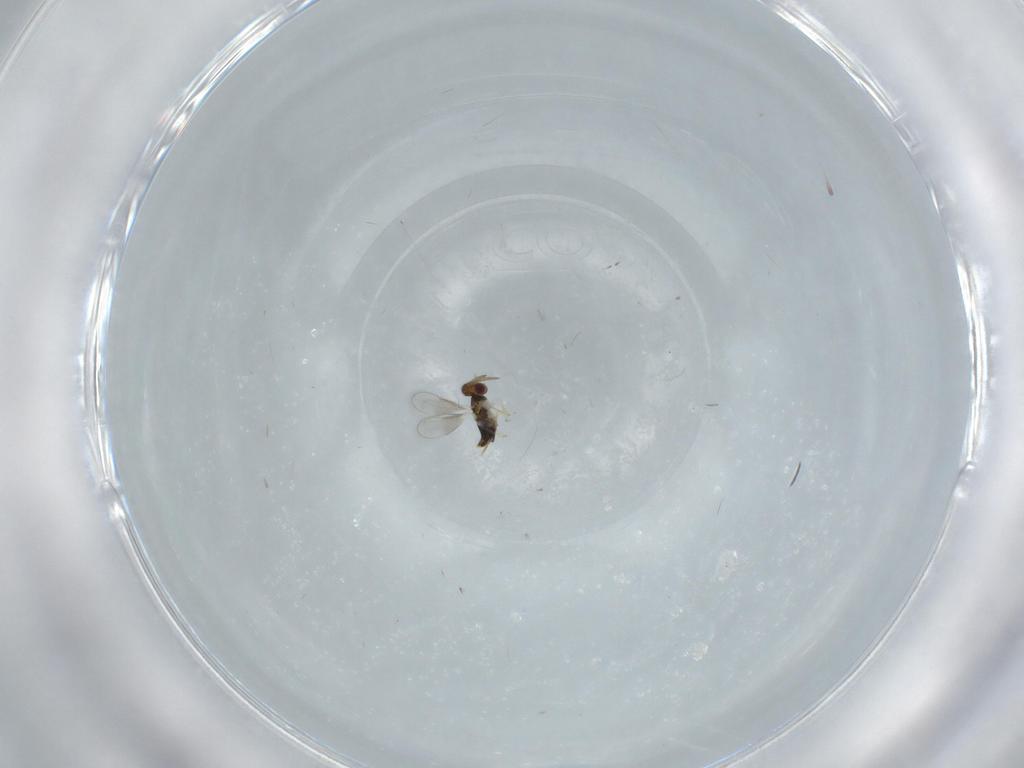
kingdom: Animalia
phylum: Arthropoda
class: Insecta
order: Hymenoptera
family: Aphelinidae
